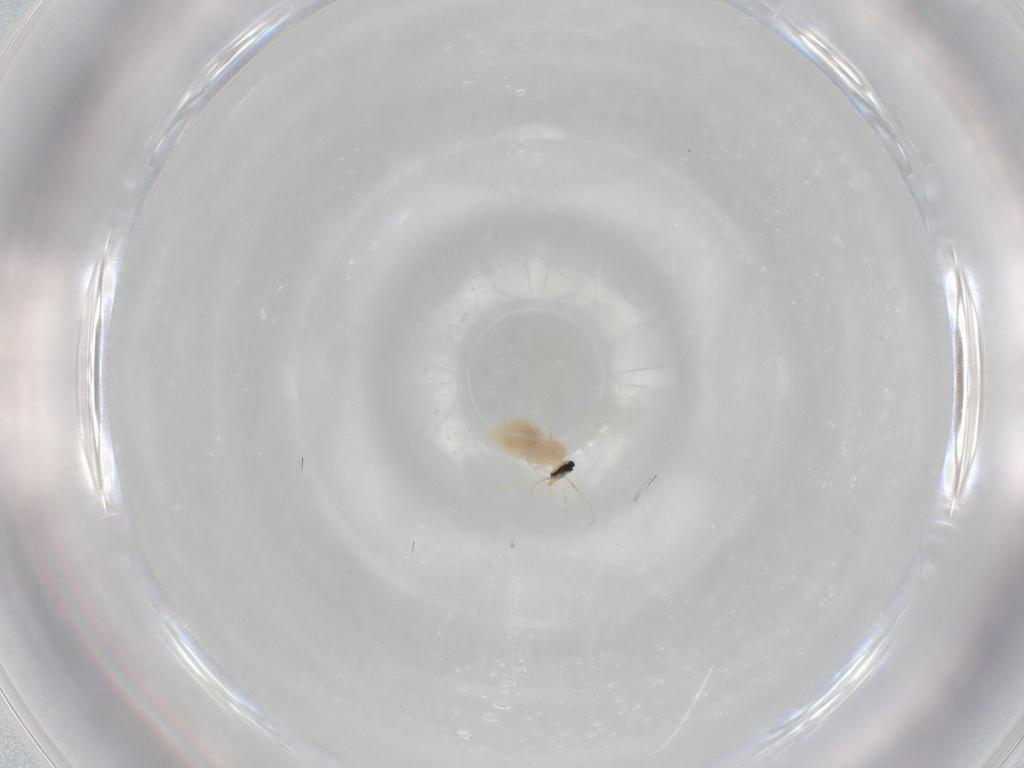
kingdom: Animalia
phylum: Arthropoda
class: Insecta
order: Diptera
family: Cecidomyiidae
